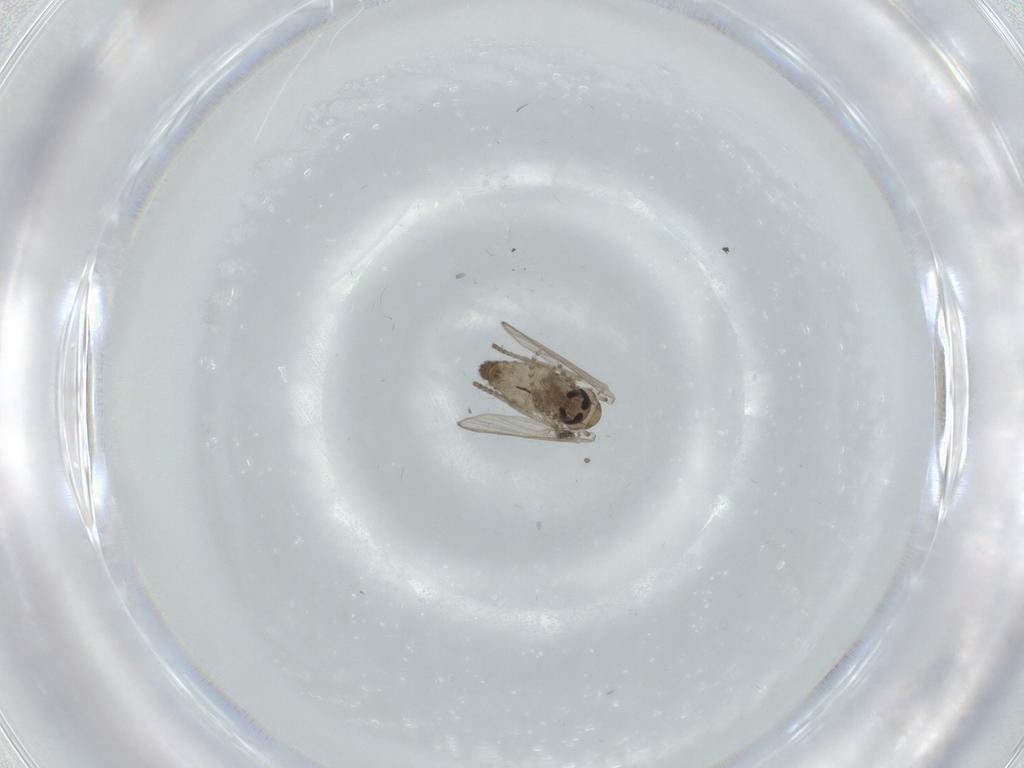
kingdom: Animalia
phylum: Arthropoda
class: Insecta
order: Diptera
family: Psychodidae
